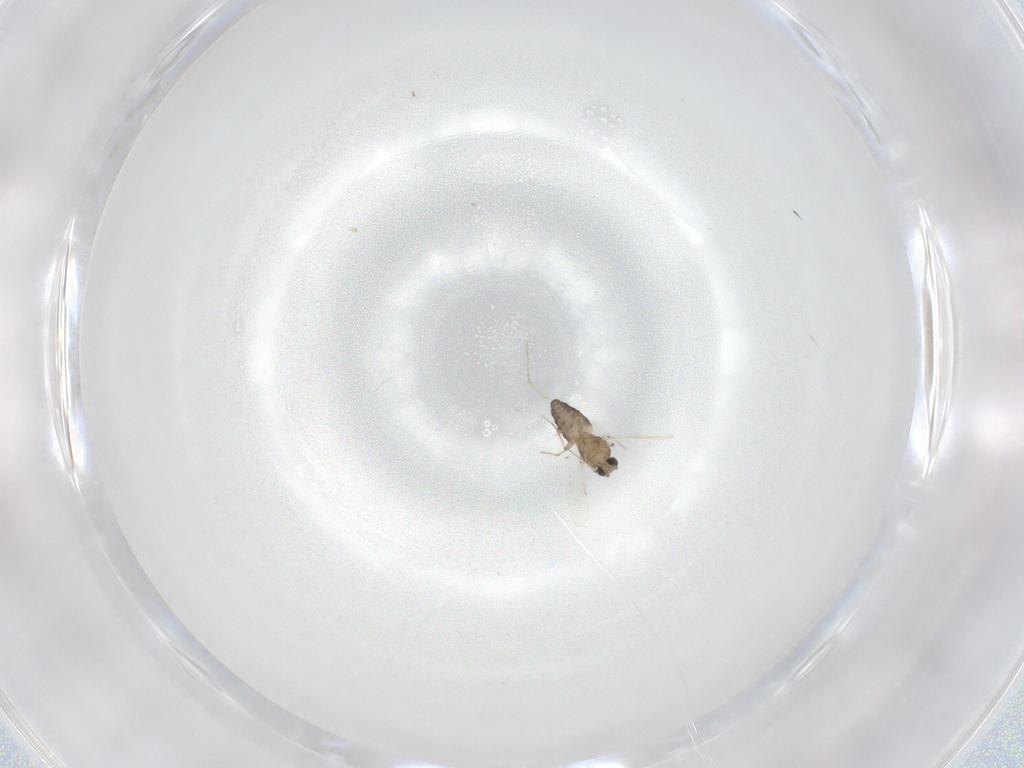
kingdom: Animalia
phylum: Arthropoda
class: Insecta
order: Diptera
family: Ceratopogonidae
